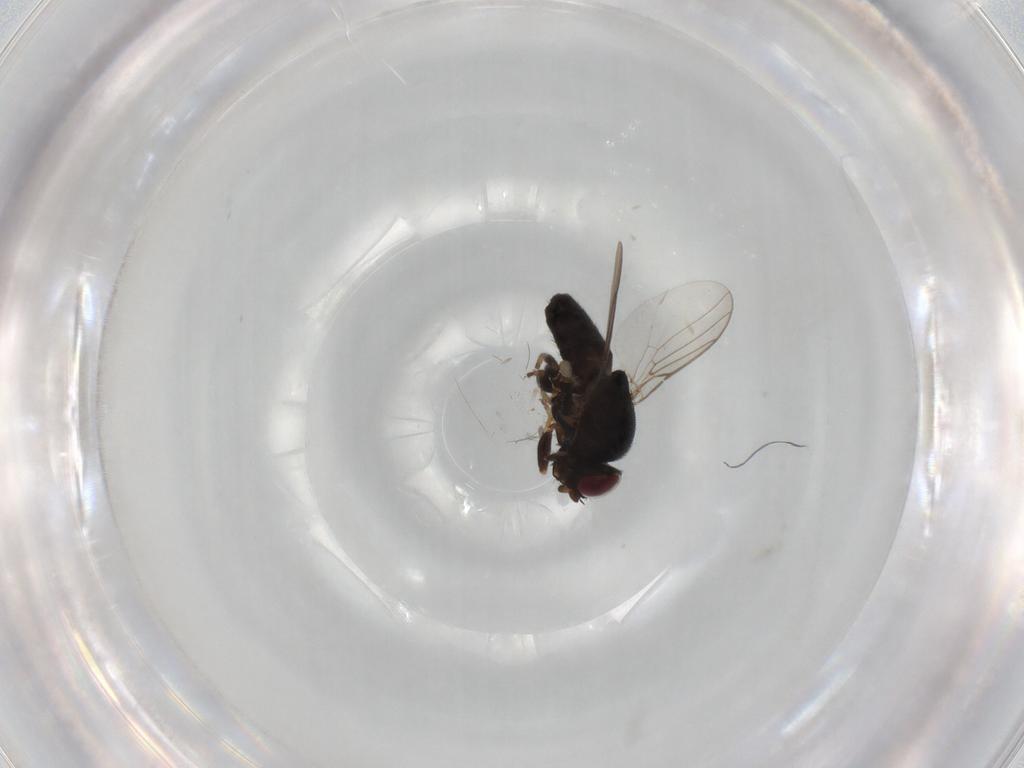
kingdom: Animalia
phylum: Arthropoda
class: Insecta
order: Diptera
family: Chloropidae
